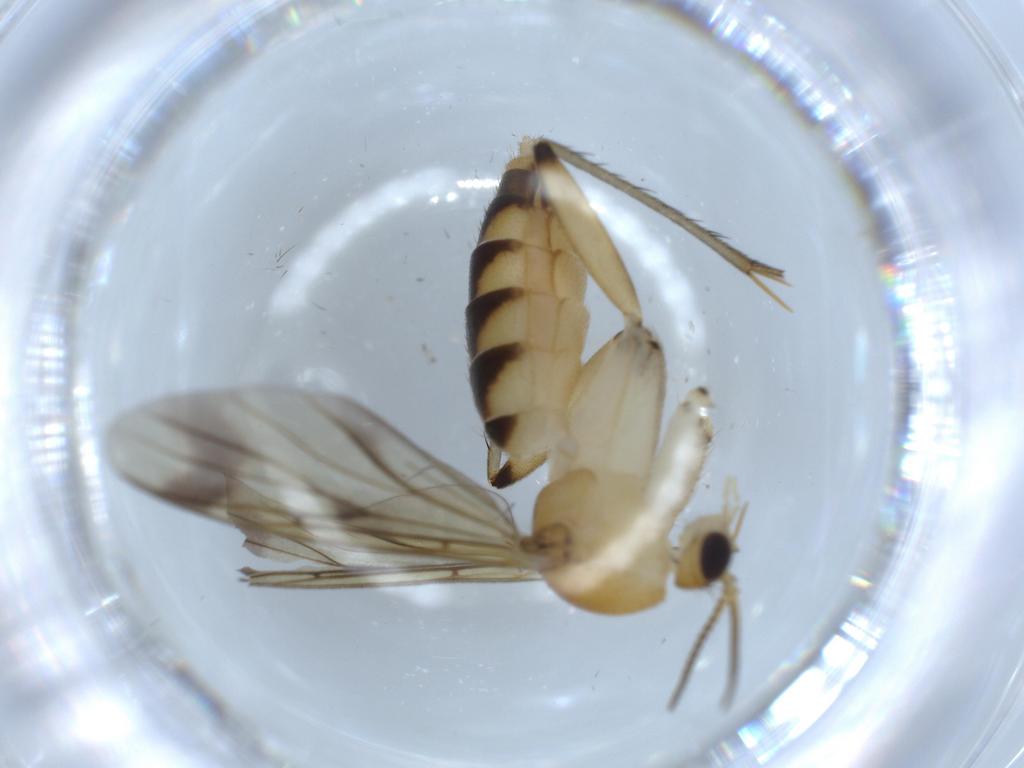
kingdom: Animalia
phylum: Arthropoda
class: Insecta
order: Diptera
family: Mycetophilidae
